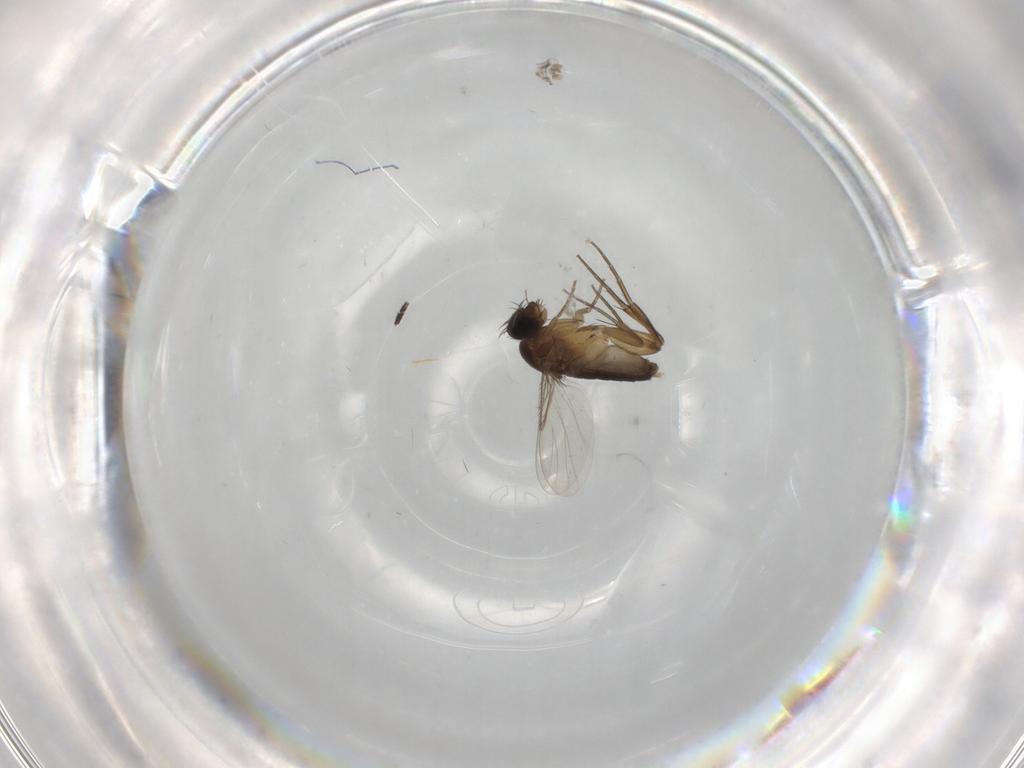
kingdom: Animalia
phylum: Arthropoda
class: Insecta
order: Diptera
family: Phoridae
